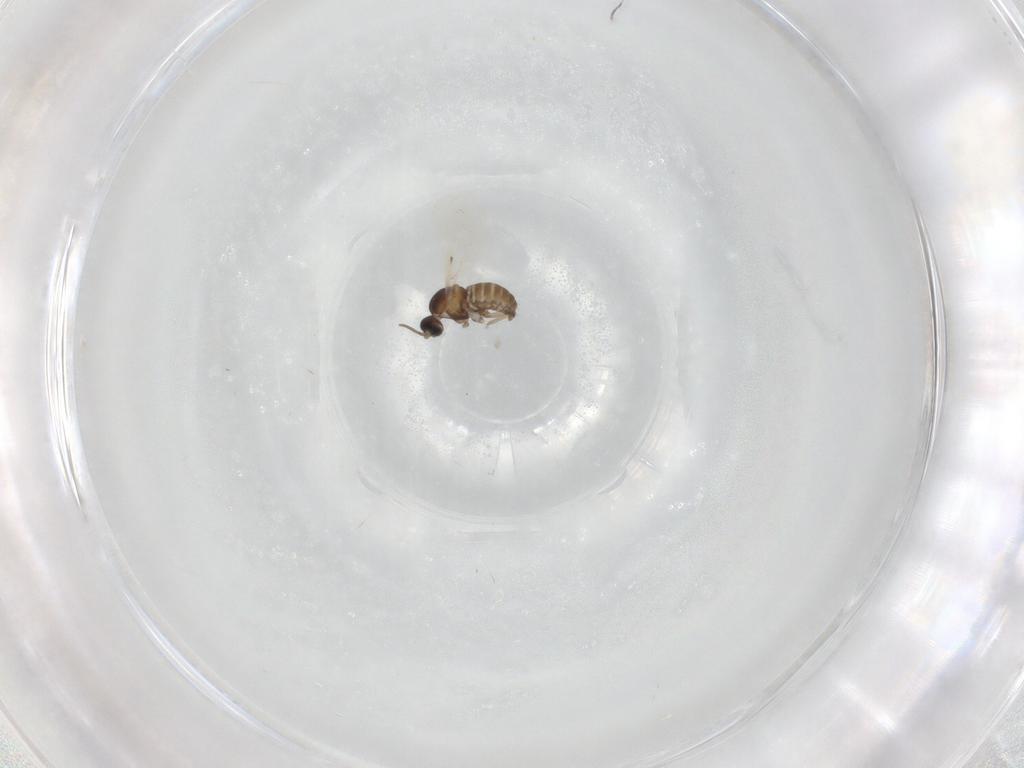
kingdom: Animalia
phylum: Arthropoda
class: Insecta
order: Diptera
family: Cecidomyiidae
